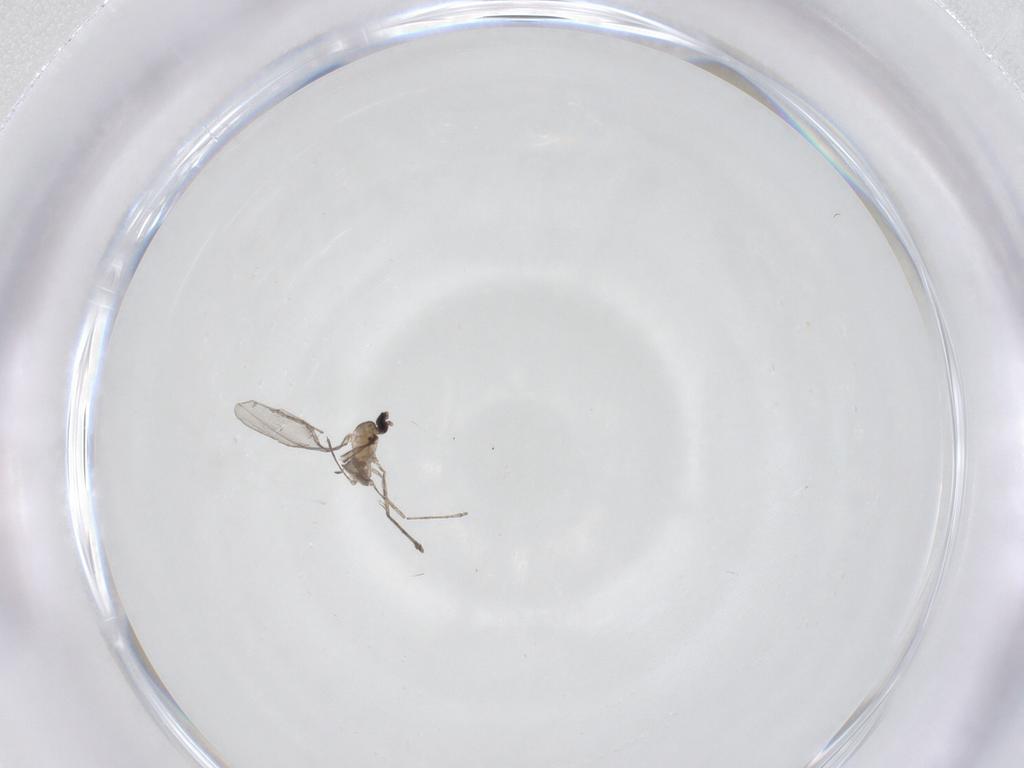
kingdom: Animalia
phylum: Arthropoda
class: Insecta
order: Diptera
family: Cecidomyiidae
